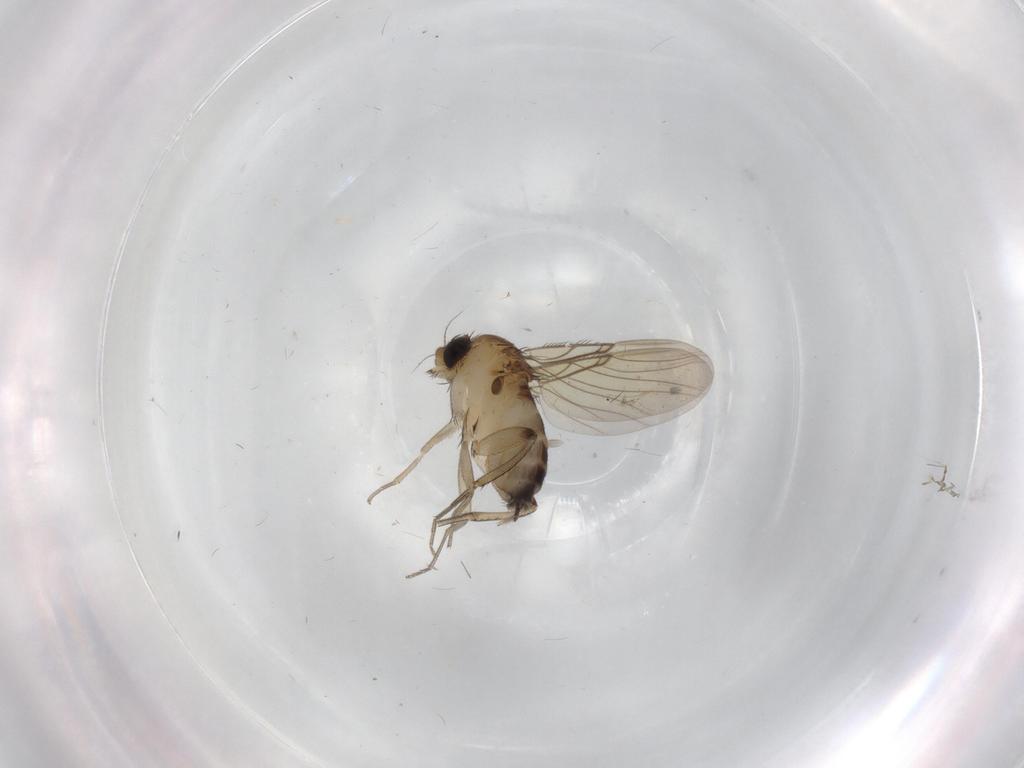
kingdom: Animalia
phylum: Arthropoda
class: Insecta
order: Diptera
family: Phoridae
